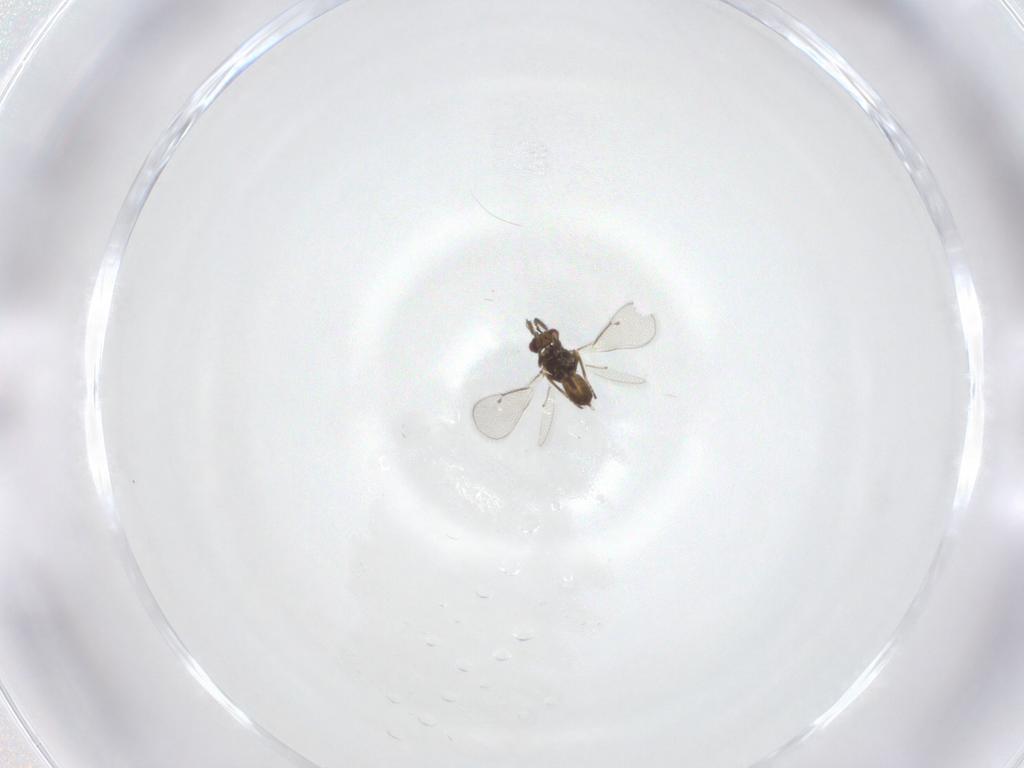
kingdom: Animalia
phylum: Arthropoda
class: Insecta
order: Hymenoptera
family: Eulophidae
